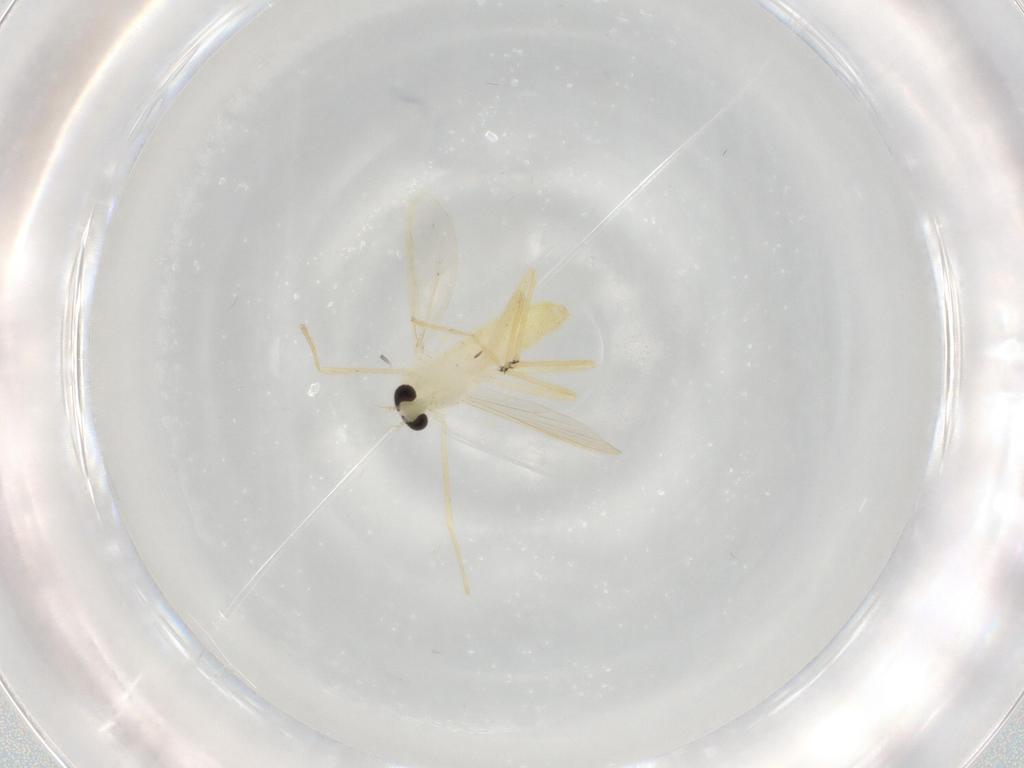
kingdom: Animalia
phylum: Arthropoda
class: Insecta
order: Diptera
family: Chironomidae
